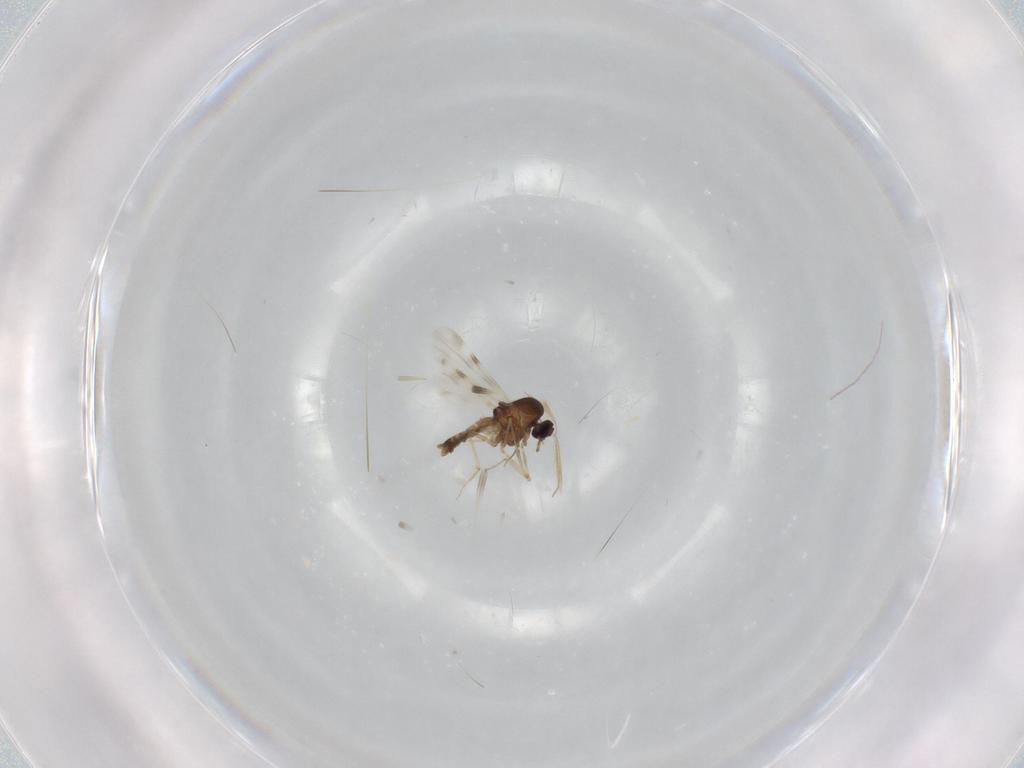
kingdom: Animalia
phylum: Arthropoda
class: Insecta
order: Diptera
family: Ceratopogonidae
